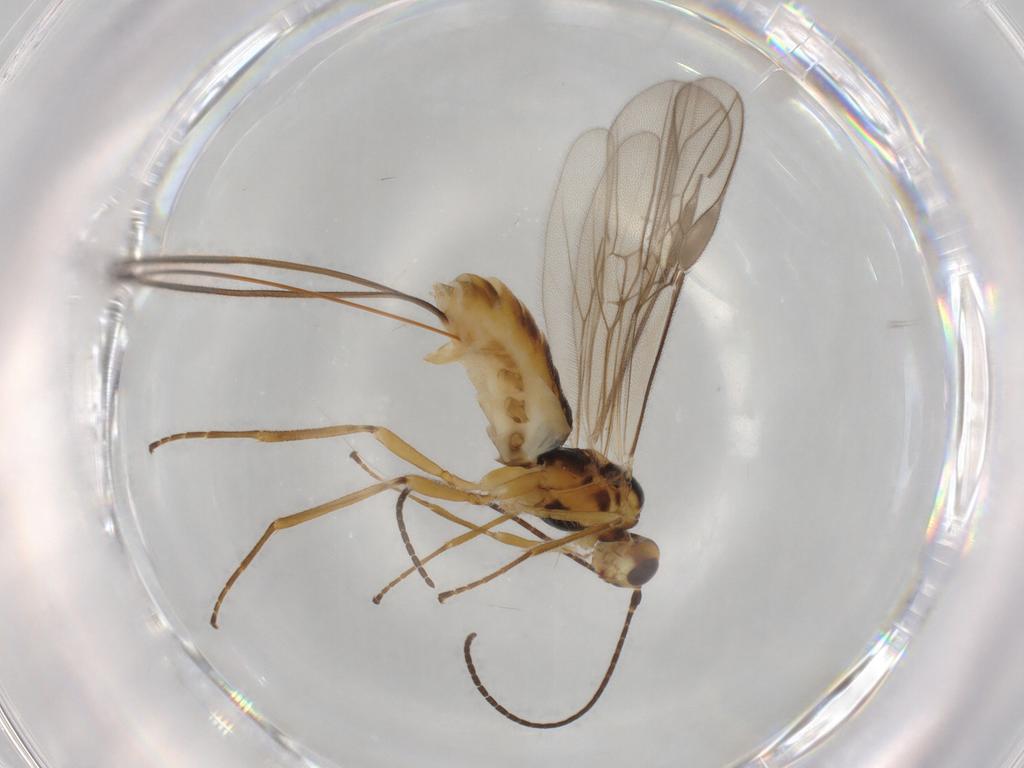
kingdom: Animalia
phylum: Arthropoda
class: Insecta
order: Hymenoptera
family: Braconidae
